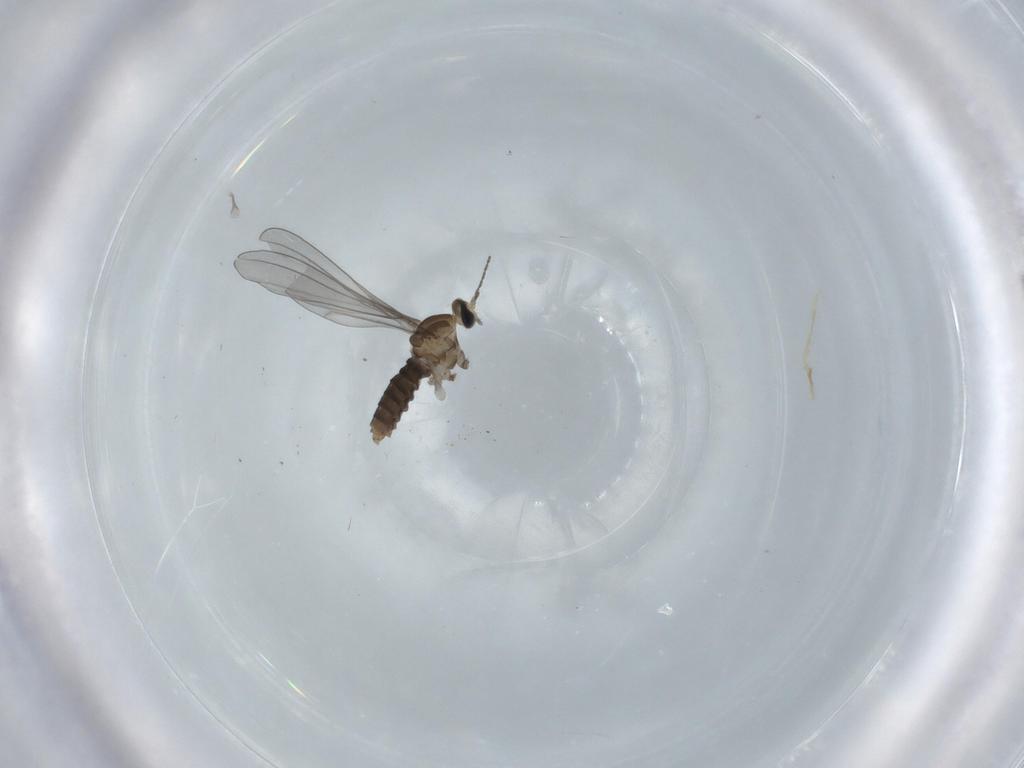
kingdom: Animalia
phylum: Arthropoda
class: Insecta
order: Diptera
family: Cecidomyiidae
